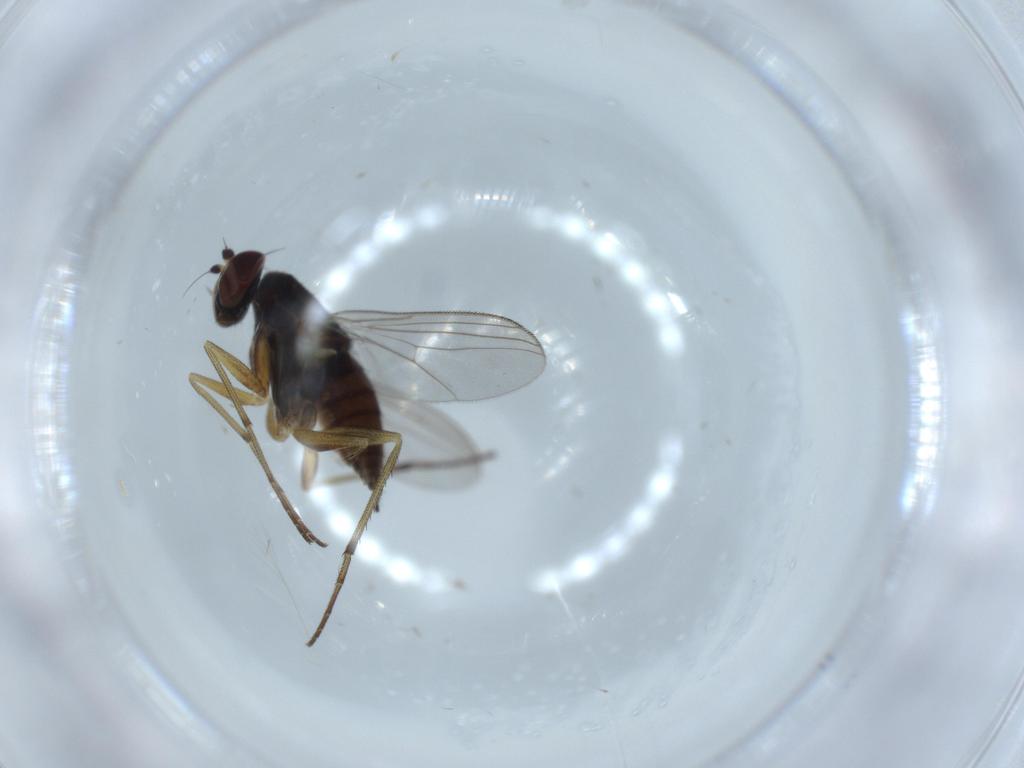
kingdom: Animalia
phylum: Arthropoda
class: Insecta
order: Diptera
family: Dolichopodidae
